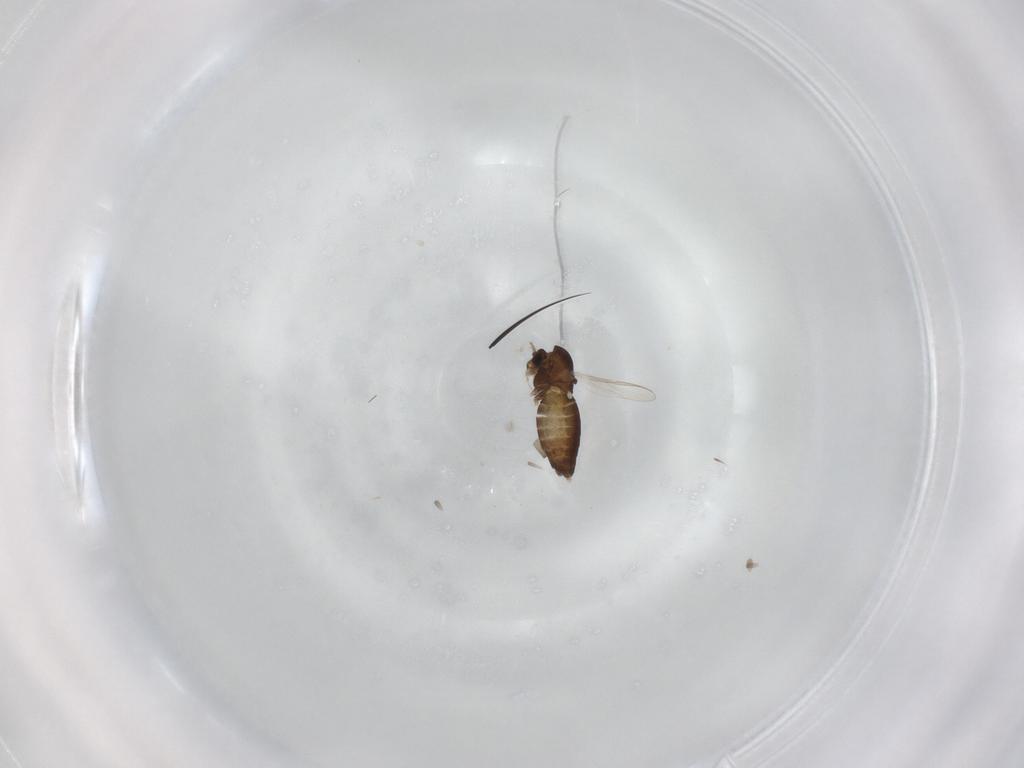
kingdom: Animalia
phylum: Arthropoda
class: Insecta
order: Diptera
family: Chironomidae
